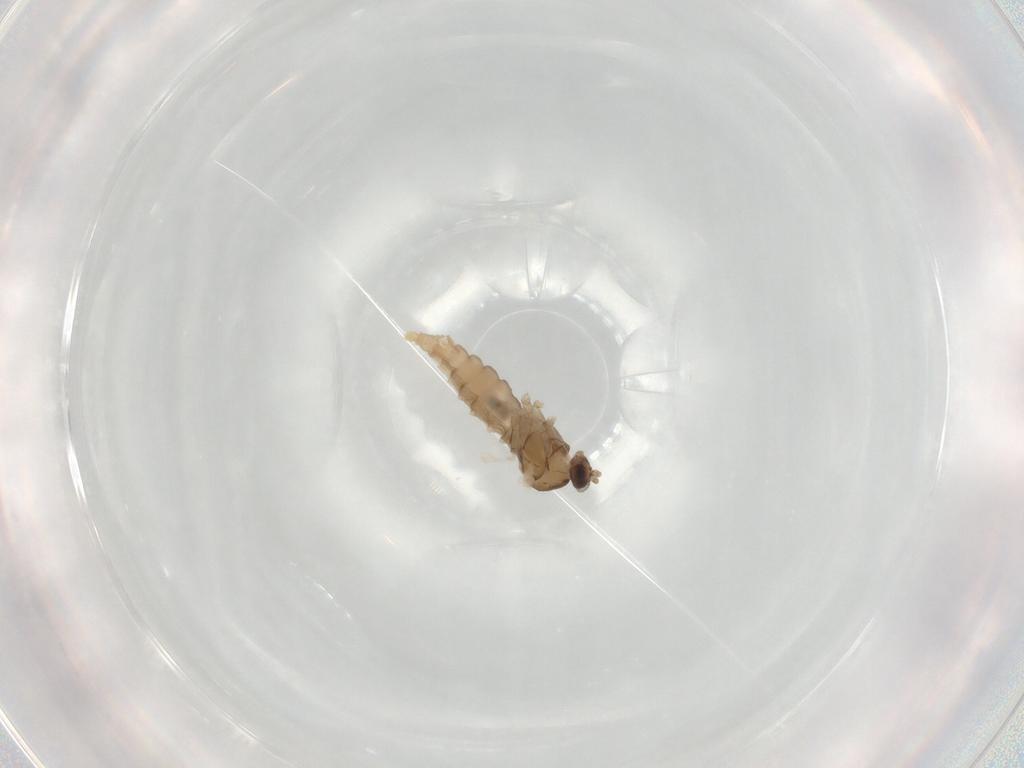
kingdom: Animalia
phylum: Arthropoda
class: Insecta
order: Diptera
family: Cecidomyiidae
